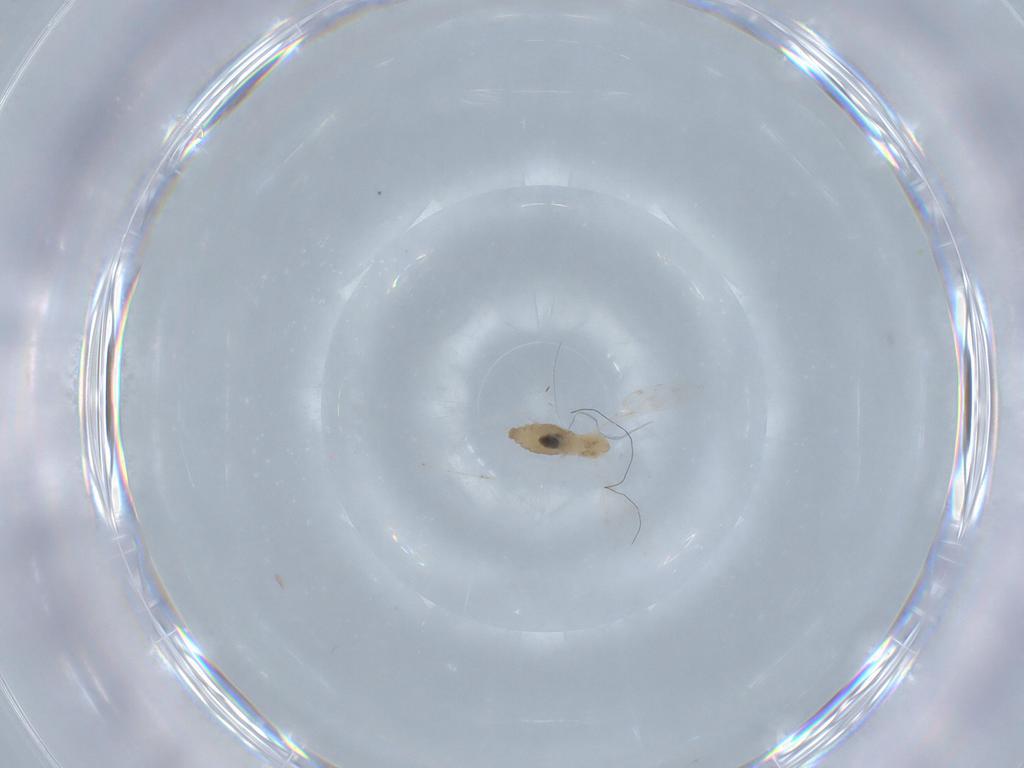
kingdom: Animalia
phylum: Arthropoda
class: Insecta
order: Diptera
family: Cecidomyiidae
